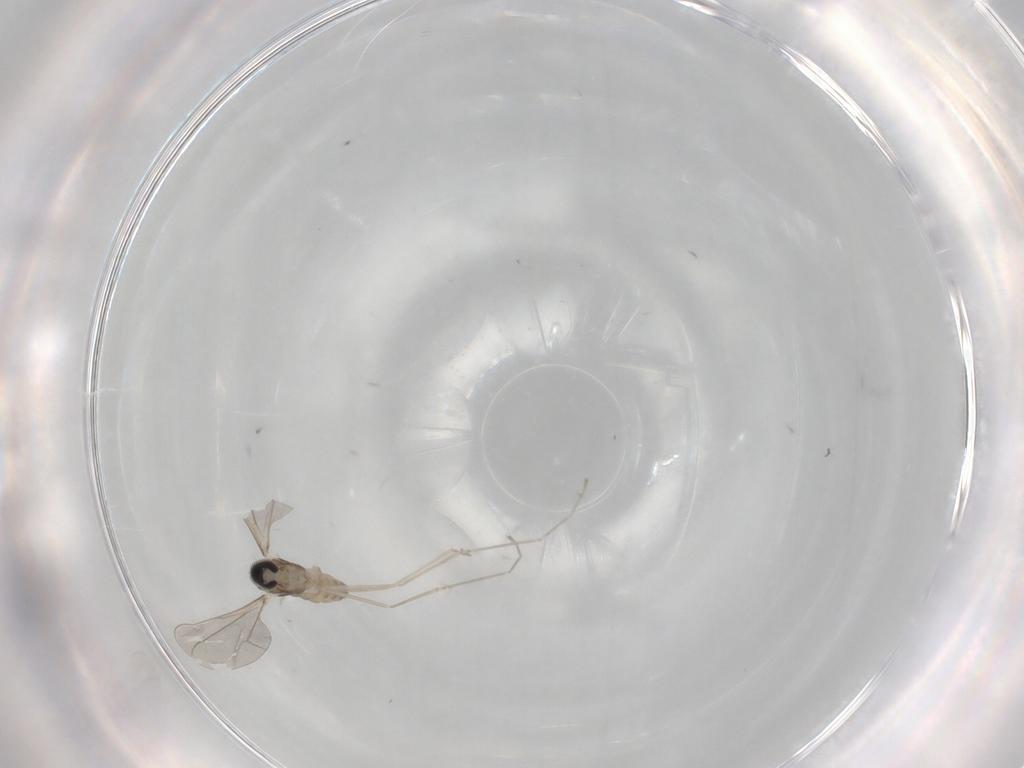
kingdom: Animalia
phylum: Arthropoda
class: Insecta
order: Diptera
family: Cecidomyiidae
